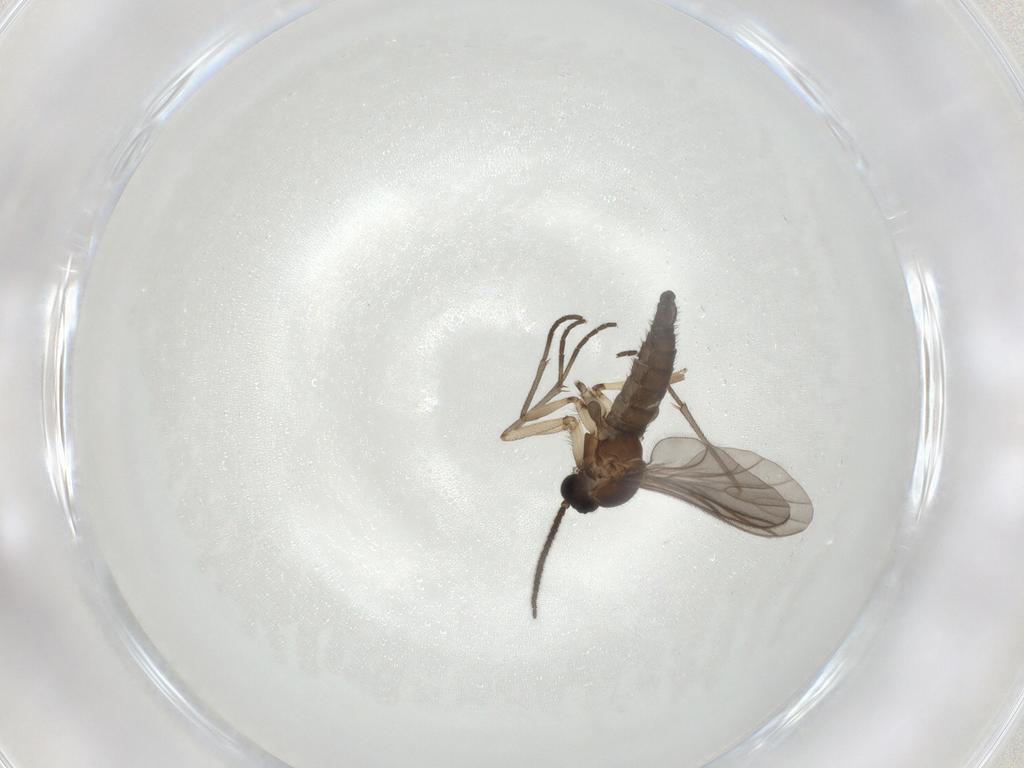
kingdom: Animalia
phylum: Arthropoda
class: Insecta
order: Diptera
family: Sciaridae
